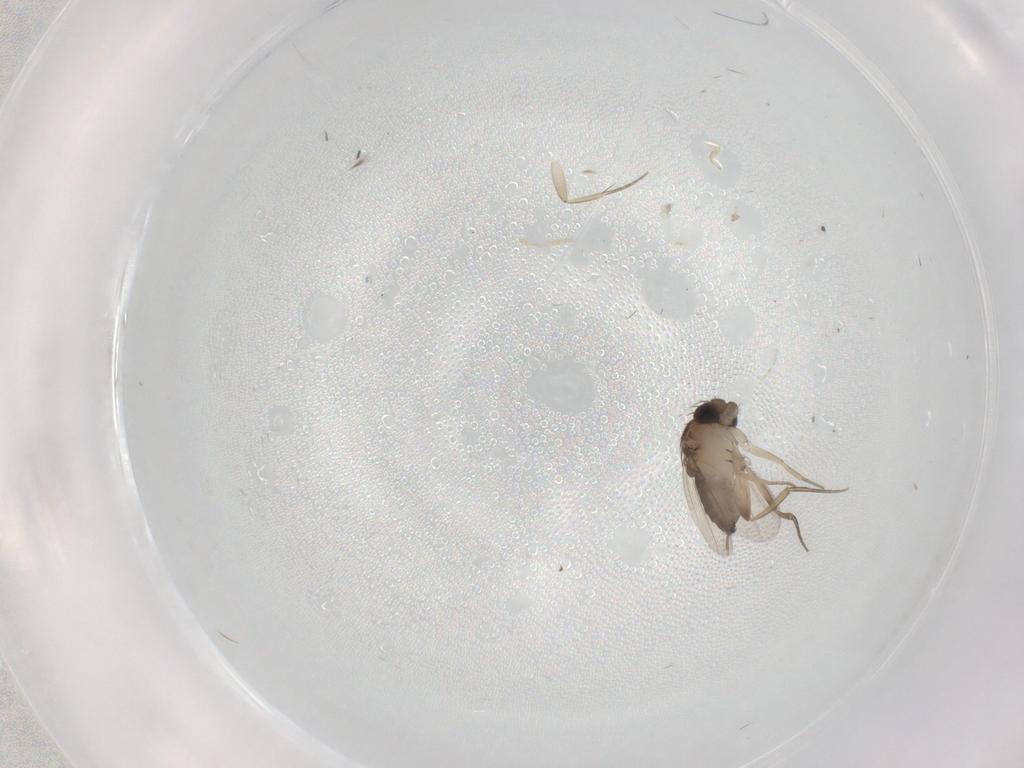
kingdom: Animalia
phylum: Arthropoda
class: Insecta
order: Diptera
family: Phoridae
